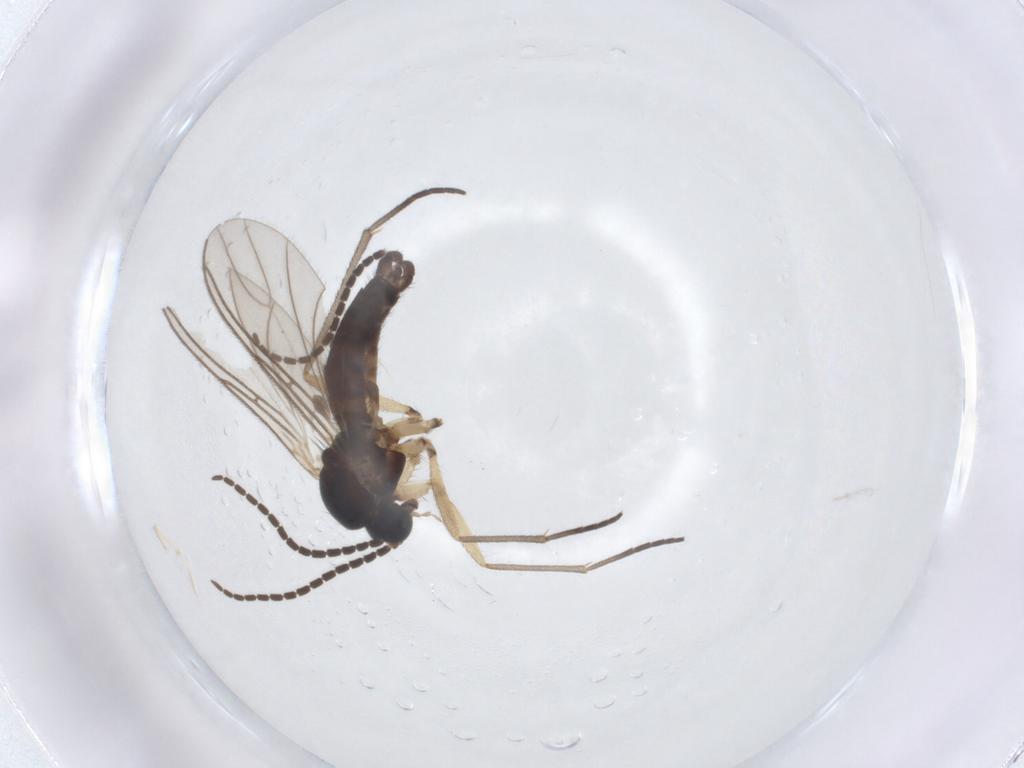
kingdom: Animalia
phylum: Arthropoda
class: Insecta
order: Diptera
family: Sciaridae
